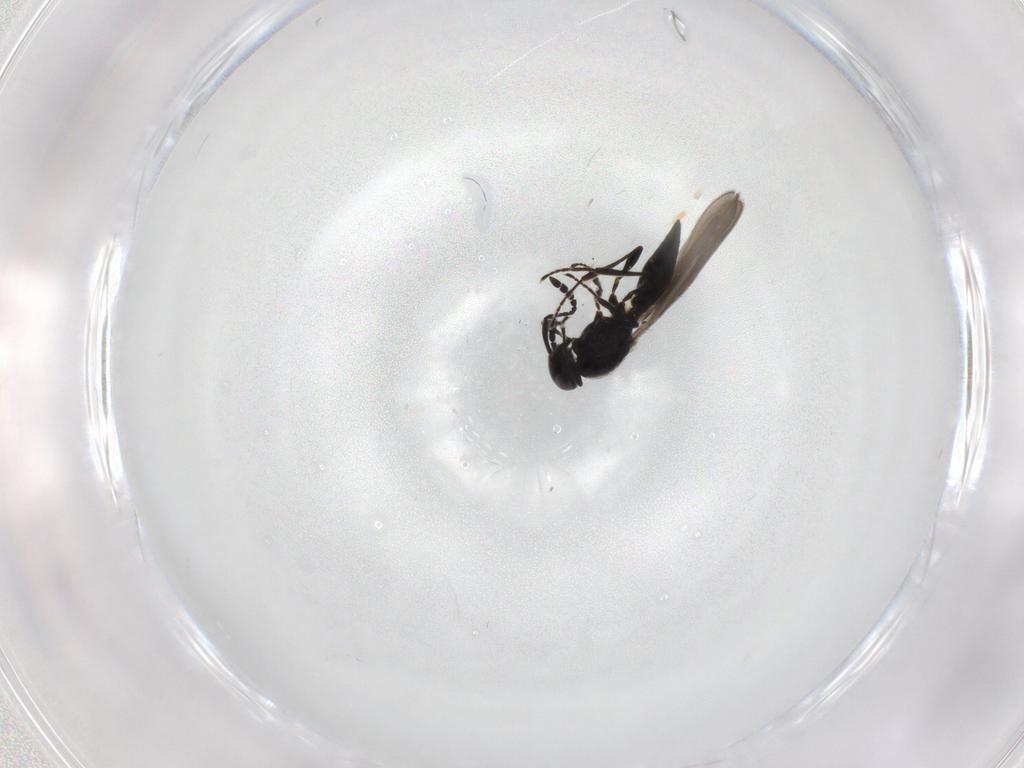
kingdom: Animalia
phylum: Arthropoda
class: Insecta
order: Hymenoptera
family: Platygastridae
